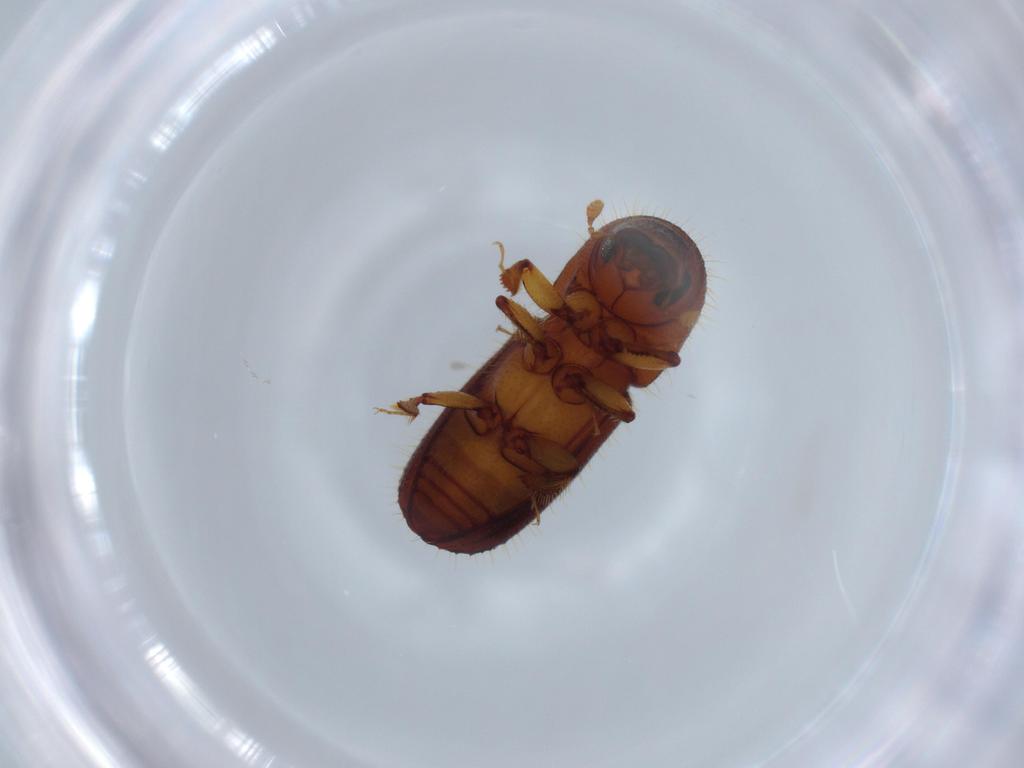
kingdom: Animalia
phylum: Arthropoda
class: Insecta
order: Coleoptera
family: Curculionidae
